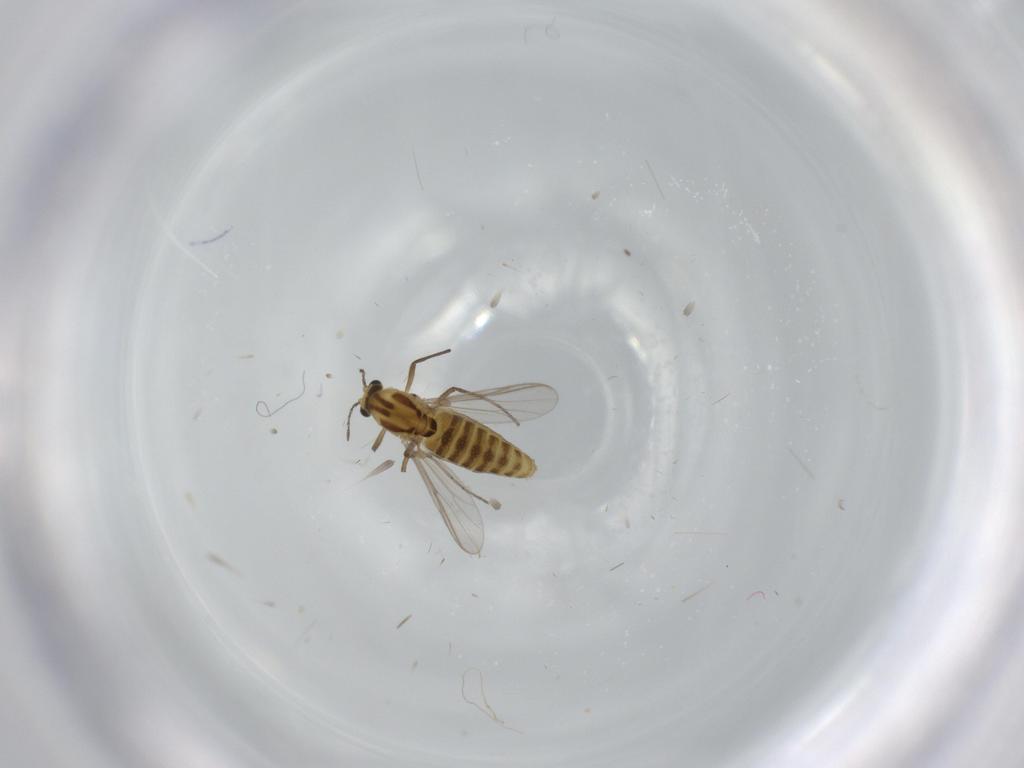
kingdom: Animalia
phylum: Arthropoda
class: Insecta
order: Diptera
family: Chironomidae
